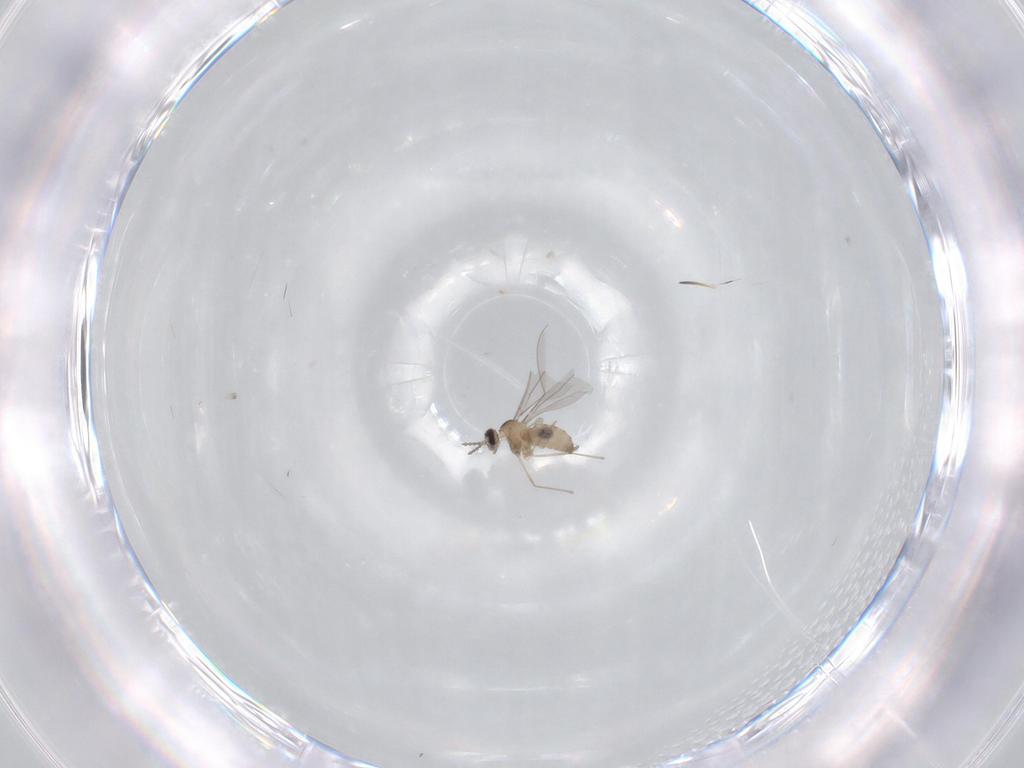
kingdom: Animalia
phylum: Arthropoda
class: Insecta
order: Diptera
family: Cecidomyiidae
